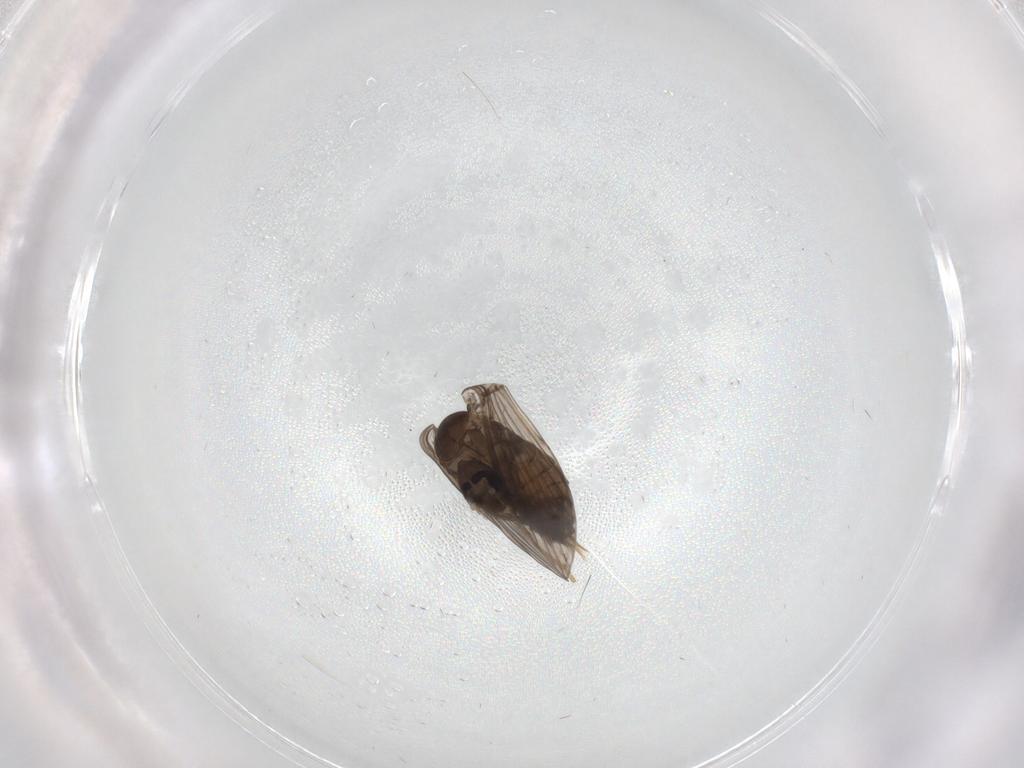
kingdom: Animalia
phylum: Arthropoda
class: Insecta
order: Diptera
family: Psychodidae
